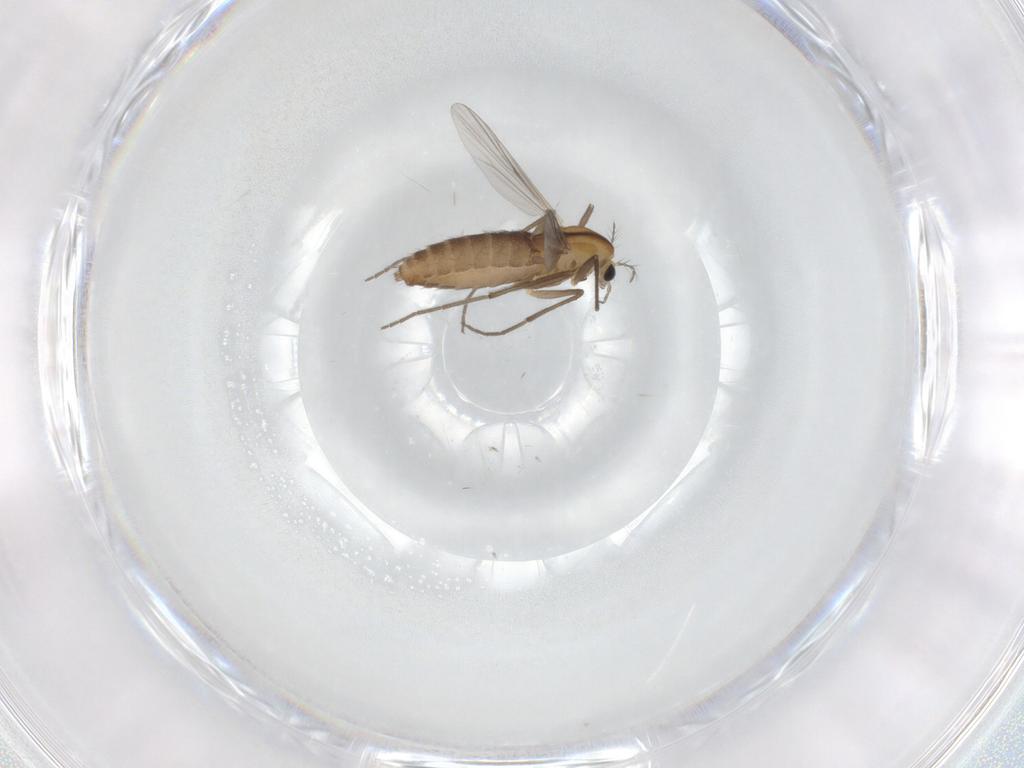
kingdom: Animalia
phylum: Arthropoda
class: Insecta
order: Diptera
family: Chironomidae
